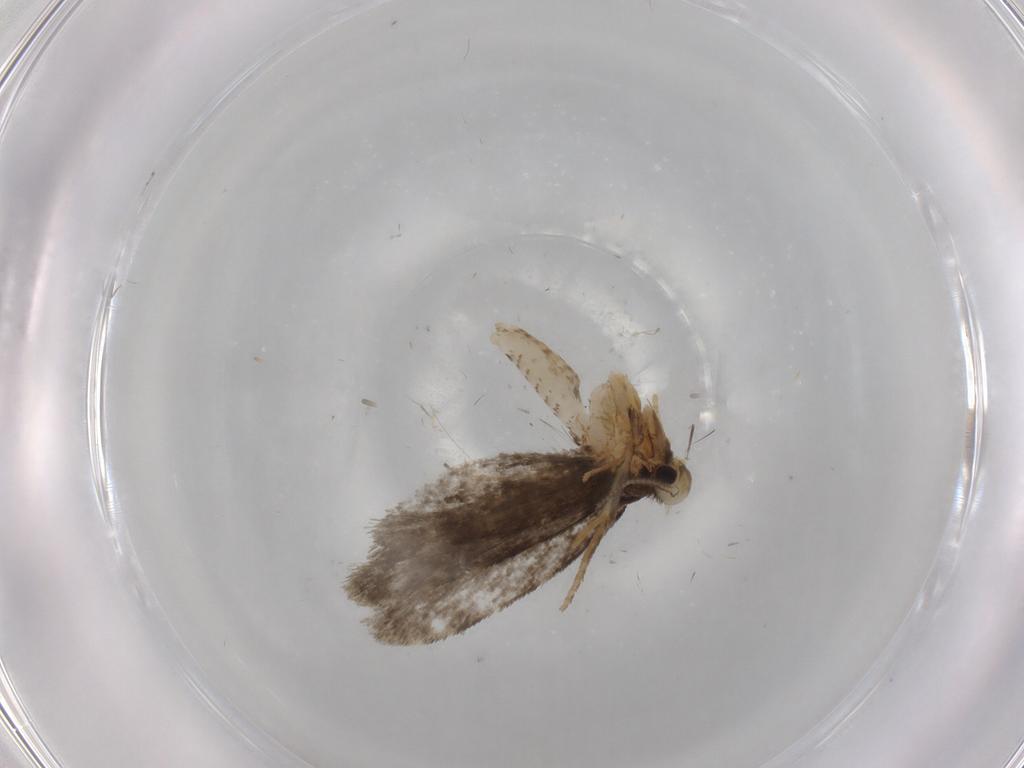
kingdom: Animalia
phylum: Arthropoda
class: Insecta
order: Lepidoptera
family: Psychidae
